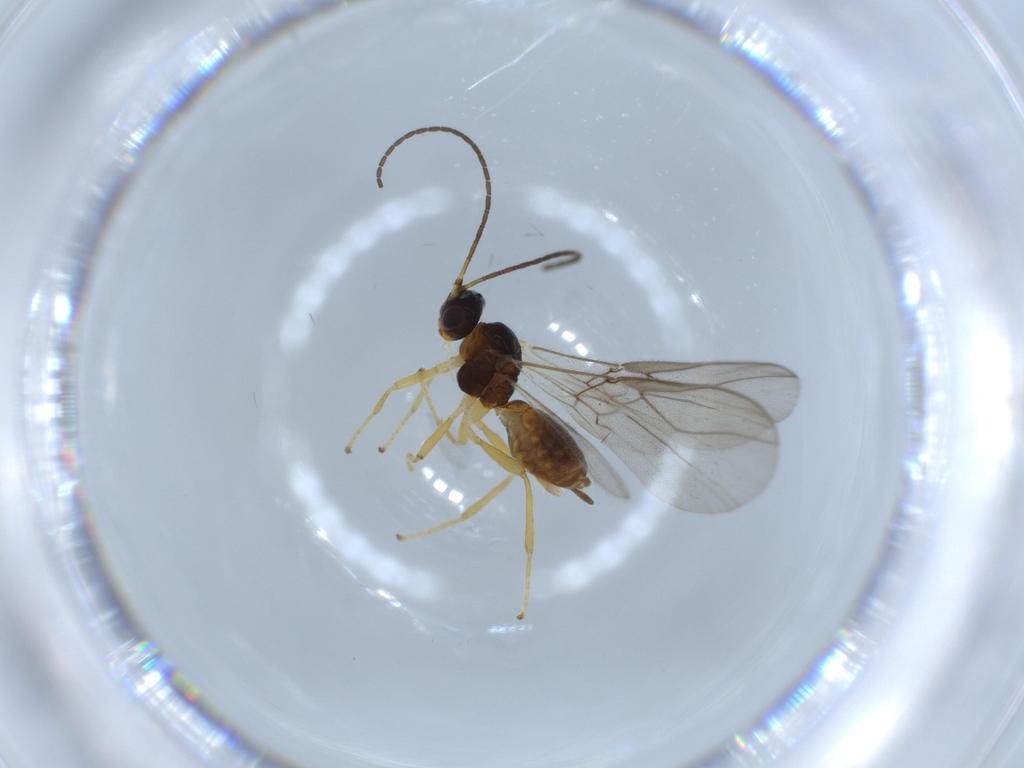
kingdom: Animalia
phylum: Arthropoda
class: Insecta
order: Hymenoptera
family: Braconidae
